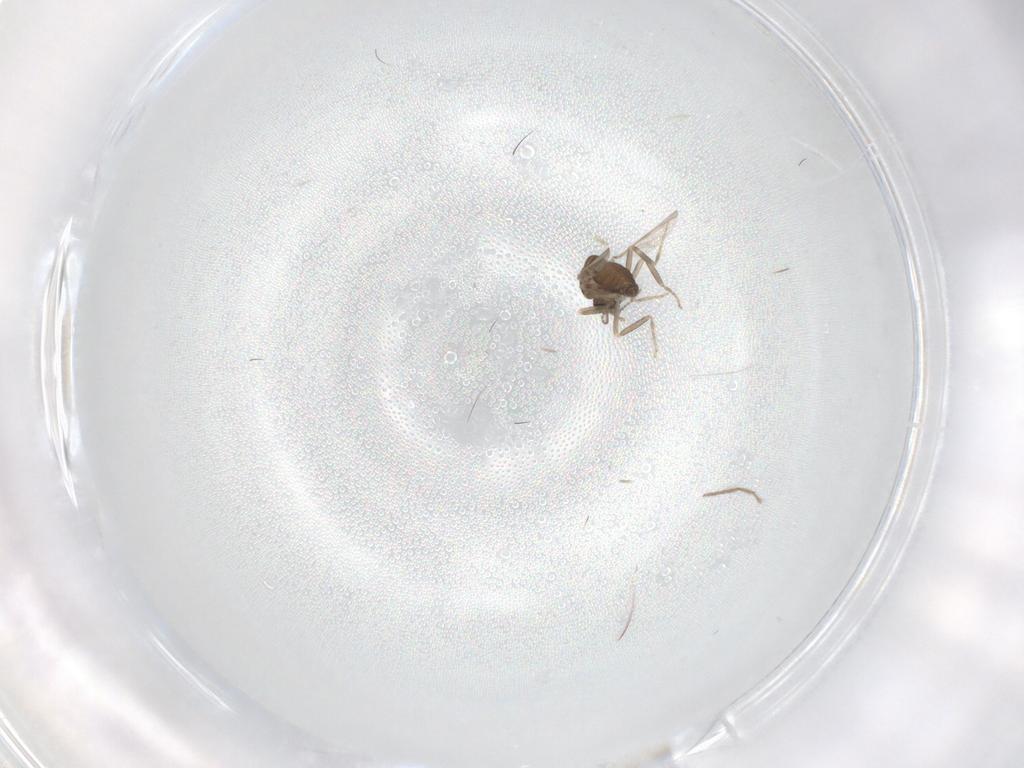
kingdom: Animalia
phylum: Arthropoda
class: Insecta
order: Diptera
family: Ceratopogonidae
